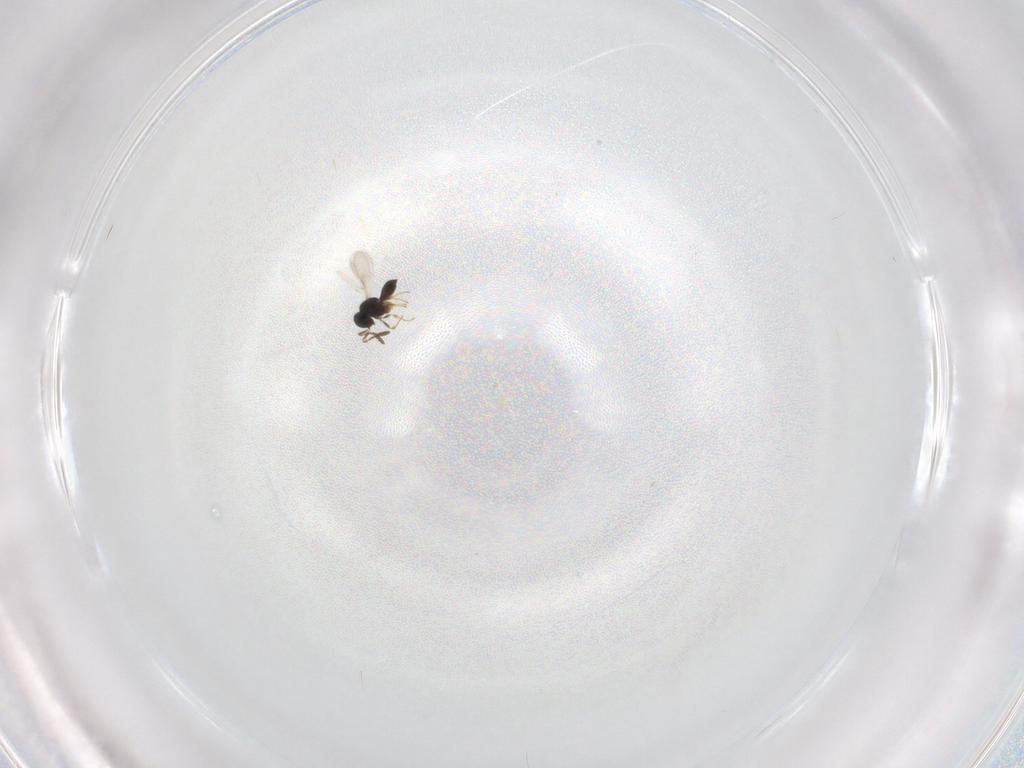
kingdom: Animalia
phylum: Arthropoda
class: Insecta
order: Hymenoptera
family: Scelionidae
